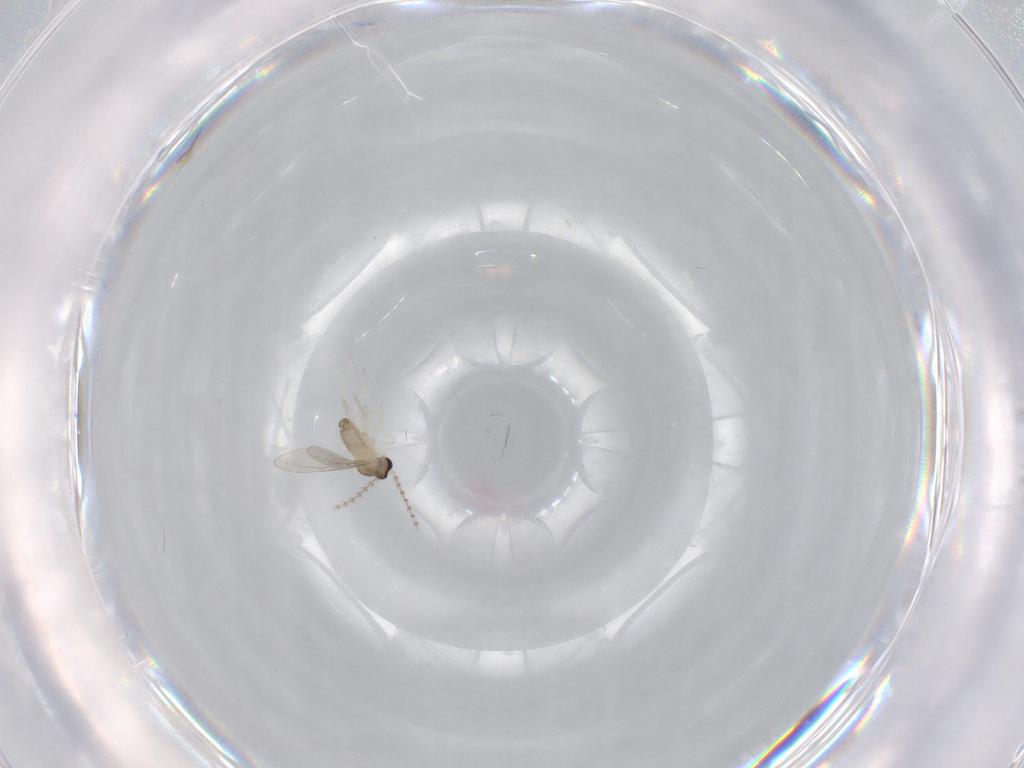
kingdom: Animalia
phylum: Arthropoda
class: Insecta
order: Diptera
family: Cecidomyiidae
